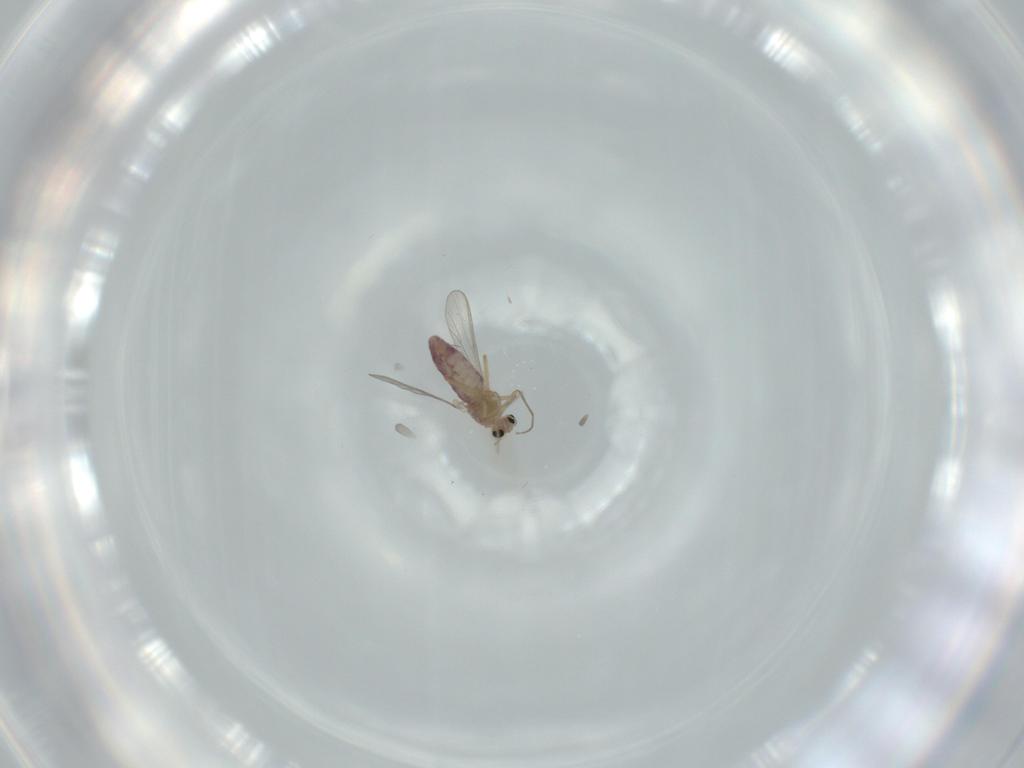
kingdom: Animalia
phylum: Arthropoda
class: Insecta
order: Diptera
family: Chironomidae
